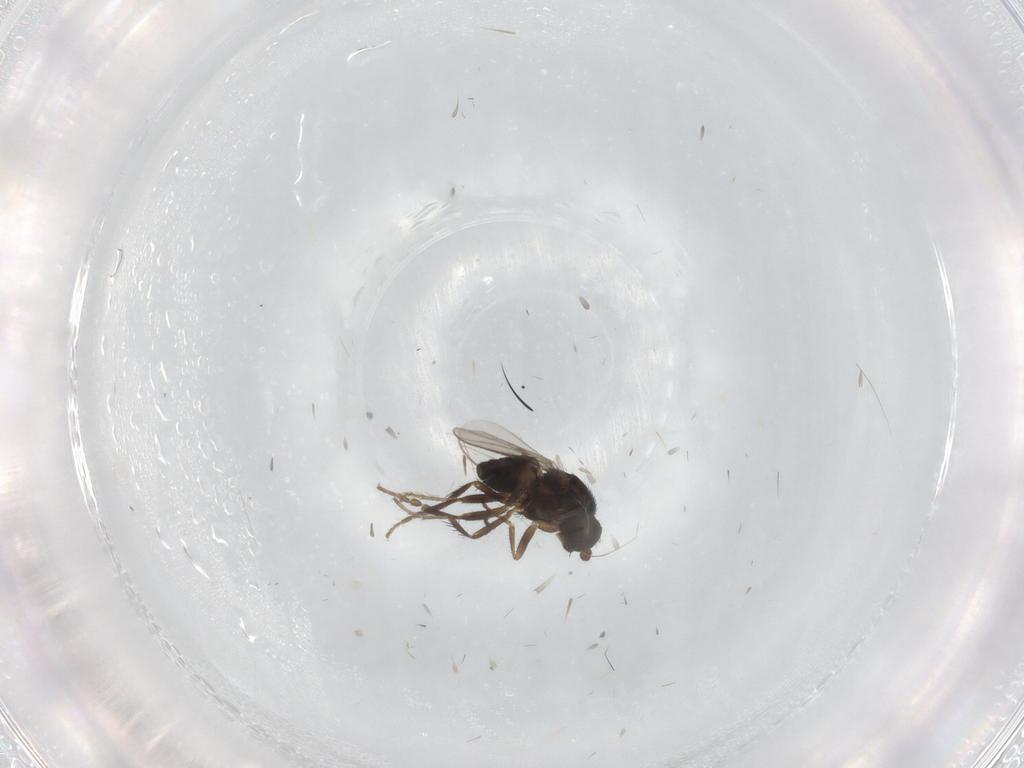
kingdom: Animalia
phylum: Arthropoda
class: Insecta
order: Diptera
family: Sphaeroceridae
